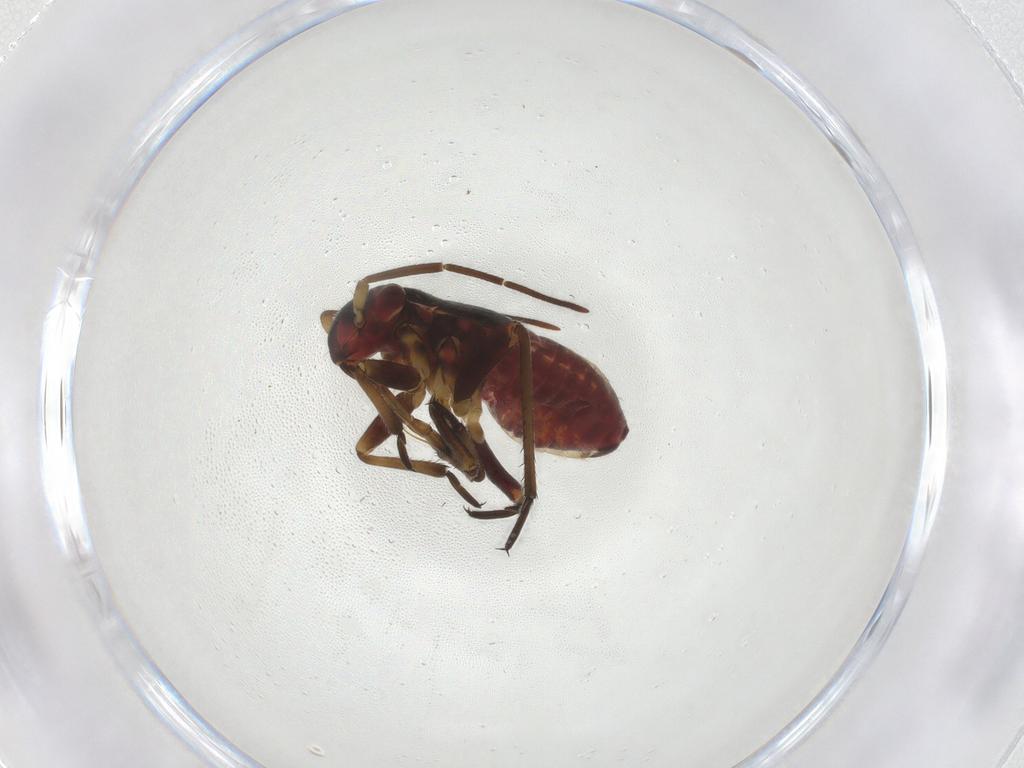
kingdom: Animalia
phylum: Arthropoda
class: Insecta
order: Hemiptera
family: Miridae
